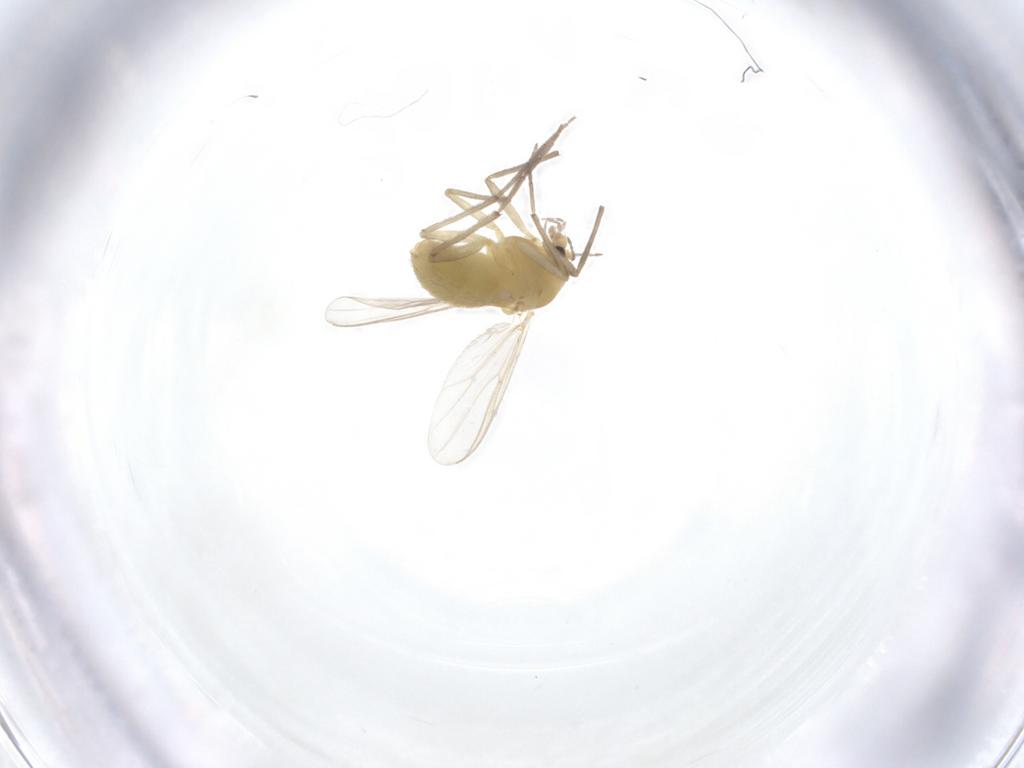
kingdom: Animalia
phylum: Arthropoda
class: Insecta
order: Diptera
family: Chironomidae
